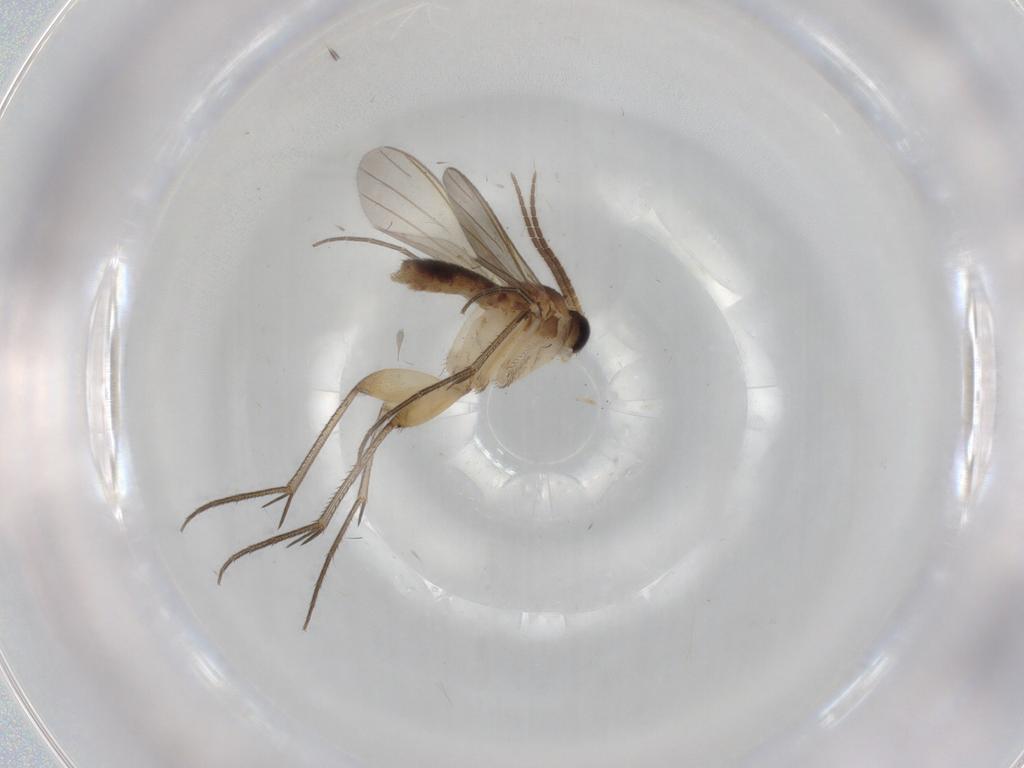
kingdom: Animalia
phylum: Arthropoda
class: Insecta
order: Diptera
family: Mycetophilidae
